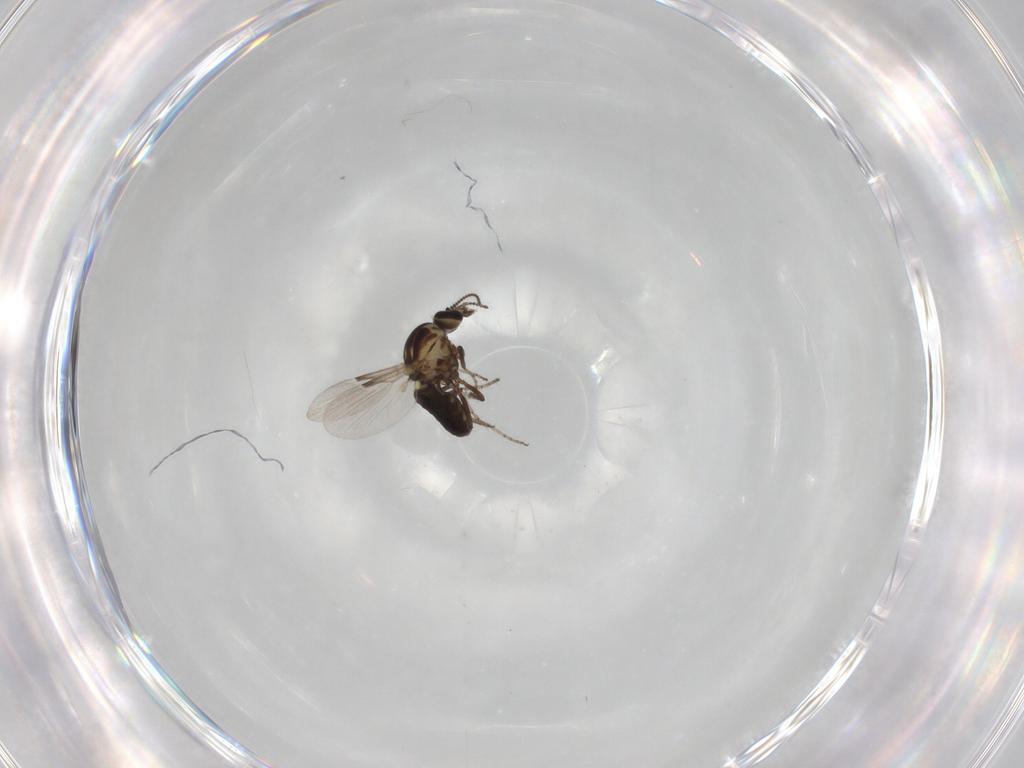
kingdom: Animalia
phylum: Arthropoda
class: Insecta
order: Diptera
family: Ceratopogonidae
